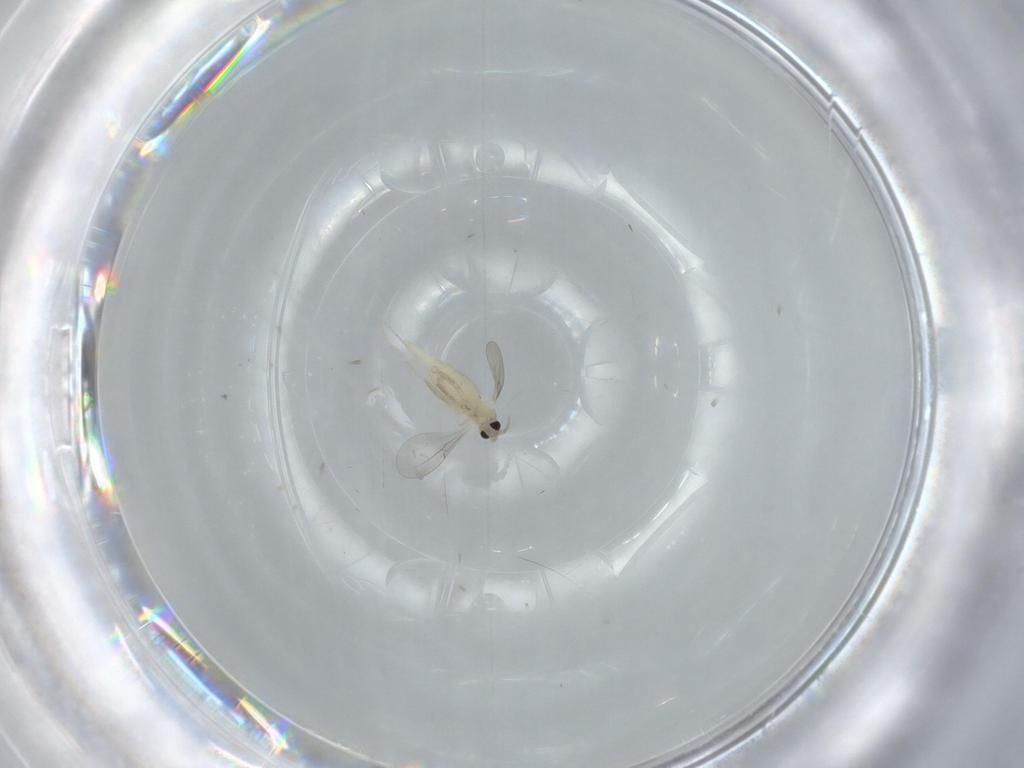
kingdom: Animalia
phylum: Arthropoda
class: Insecta
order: Diptera
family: Cecidomyiidae
